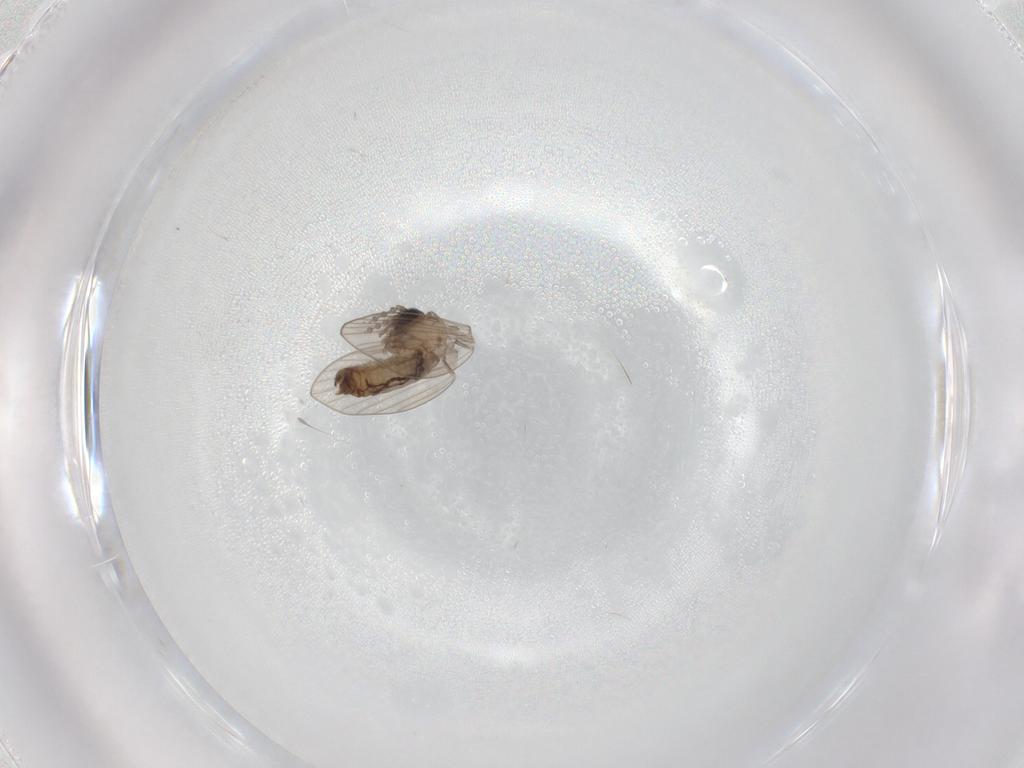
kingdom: Animalia
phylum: Arthropoda
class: Insecta
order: Diptera
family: Psychodidae
